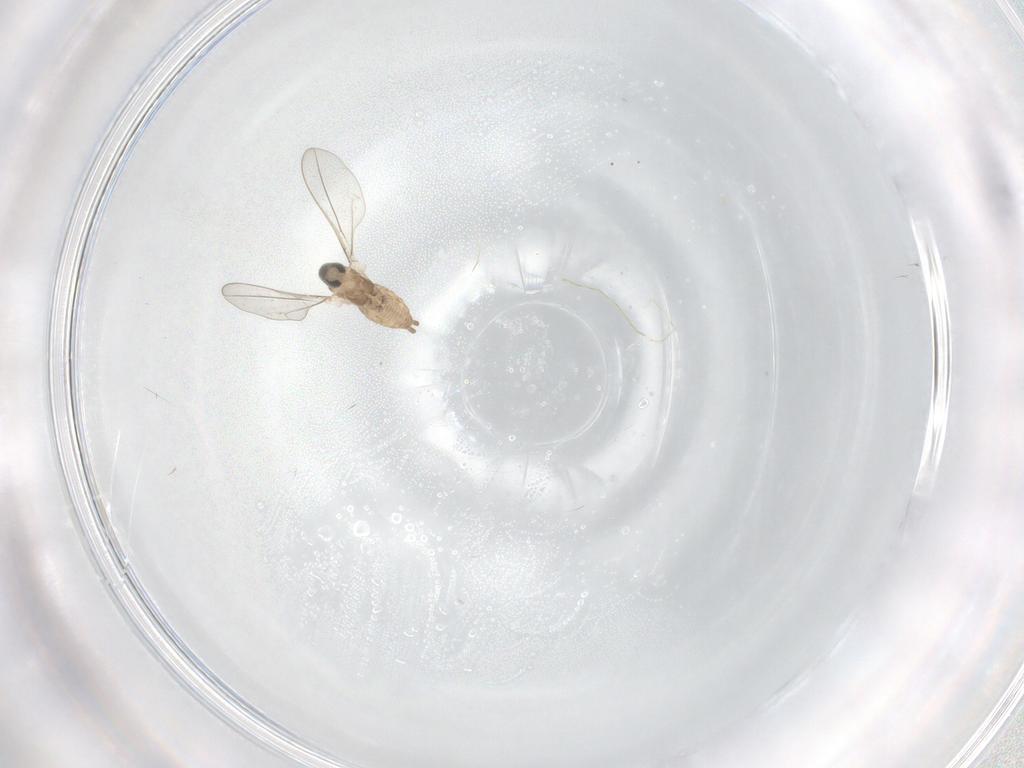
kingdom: Animalia
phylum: Arthropoda
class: Insecta
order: Diptera
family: Cecidomyiidae
